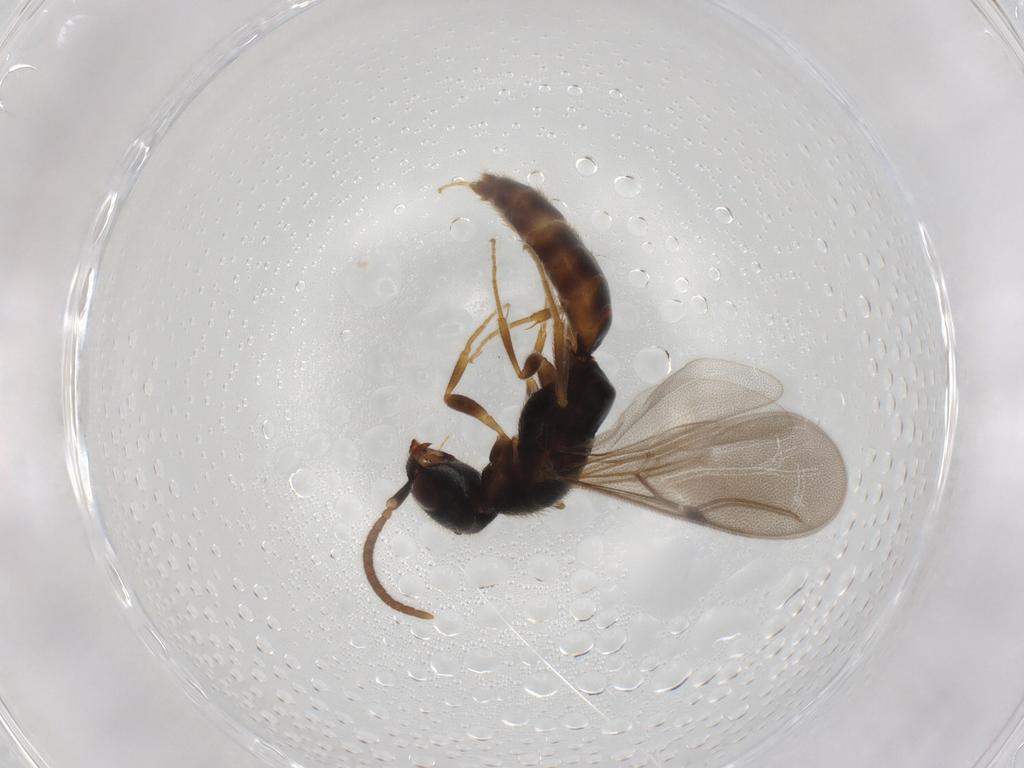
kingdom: Animalia
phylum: Arthropoda
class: Insecta
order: Hymenoptera
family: Bethylidae
